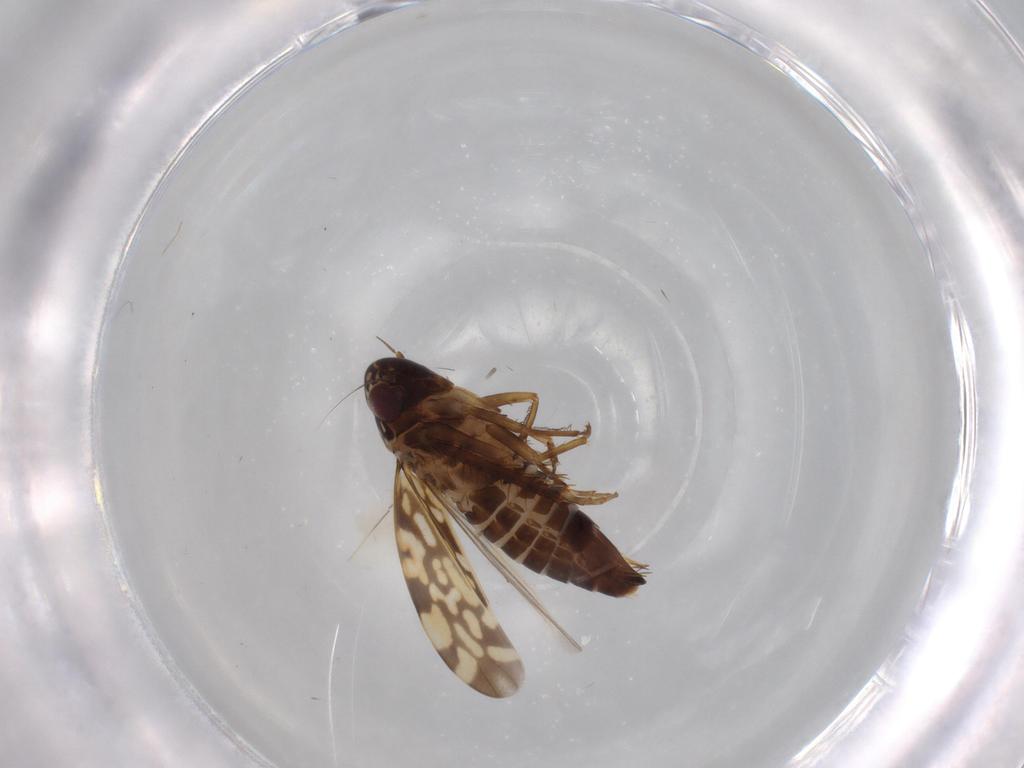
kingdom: Animalia
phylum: Arthropoda
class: Insecta
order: Hemiptera
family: Cicadellidae
